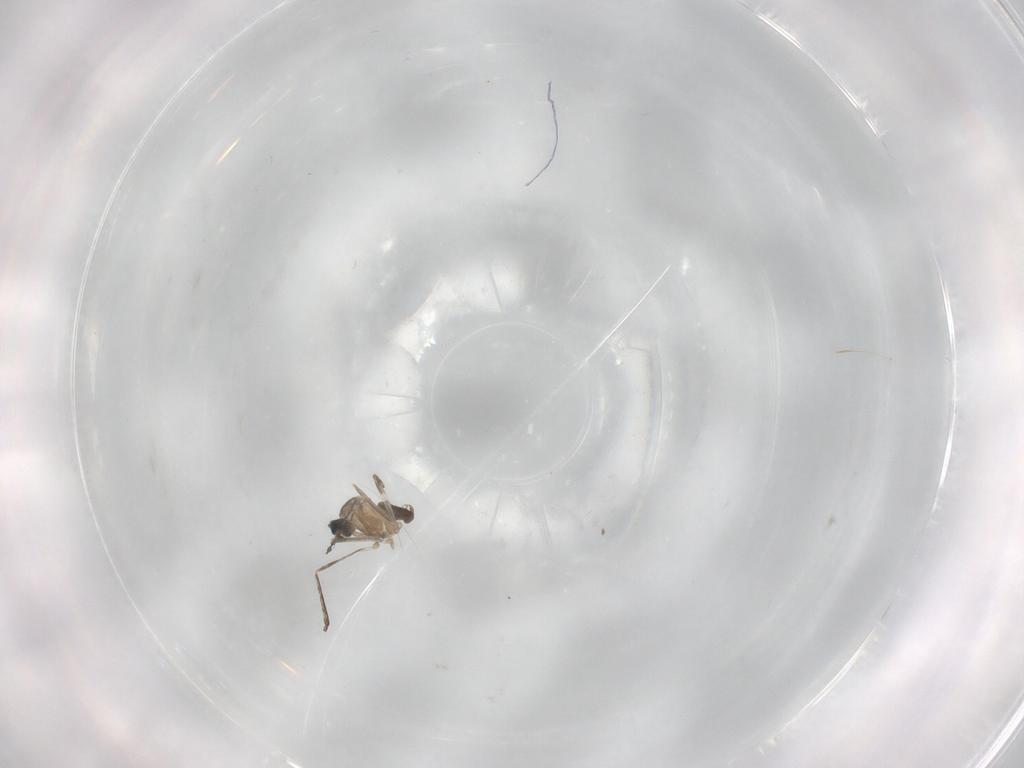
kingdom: Animalia
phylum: Arthropoda
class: Insecta
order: Diptera
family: Cecidomyiidae
